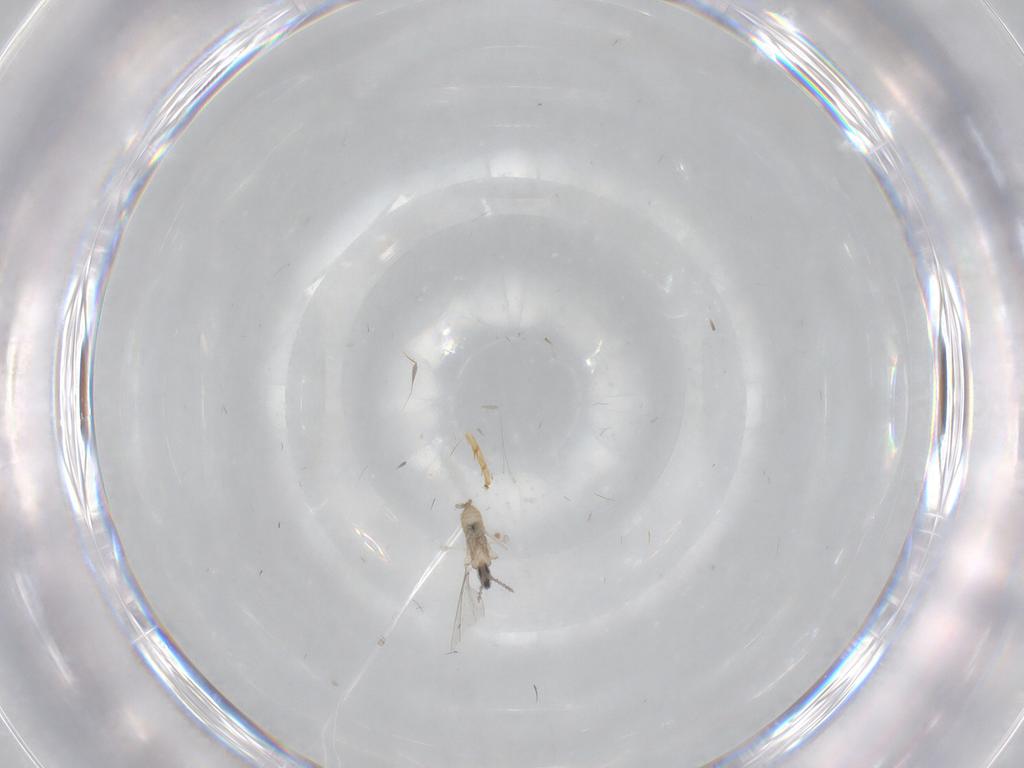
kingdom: Animalia
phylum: Arthropoda
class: Insecta
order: Diptera
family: Cecidomyiidae
